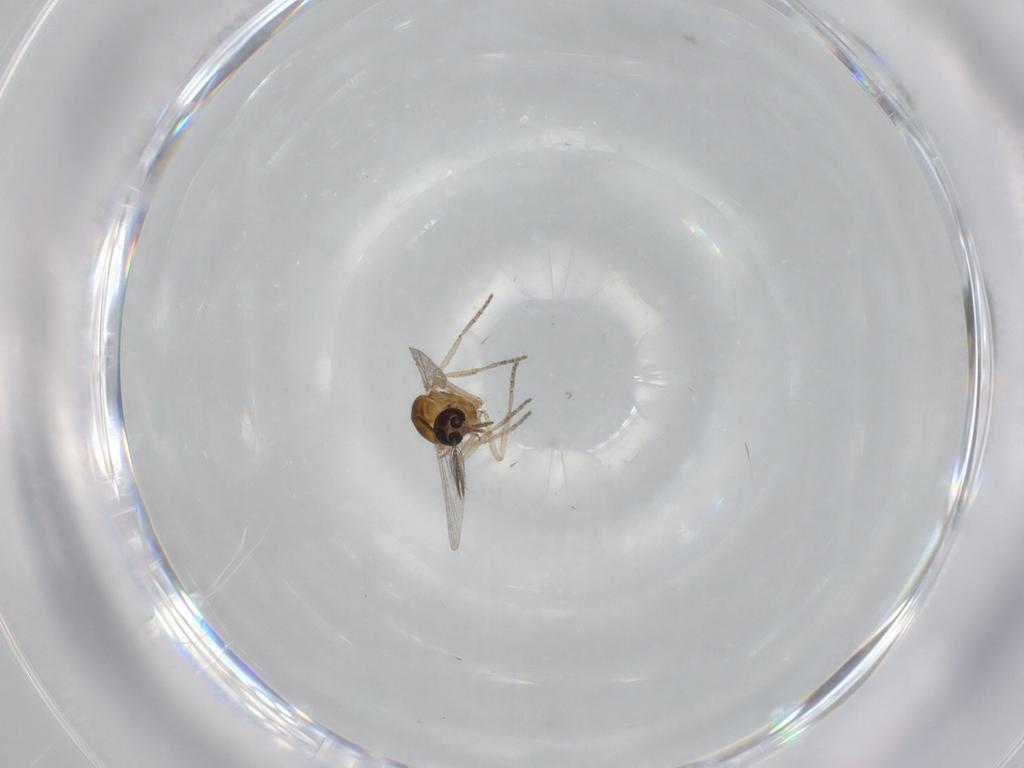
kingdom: Animalia
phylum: Arthropoda
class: Insecta
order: Diptera
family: Ceratopogonidae
